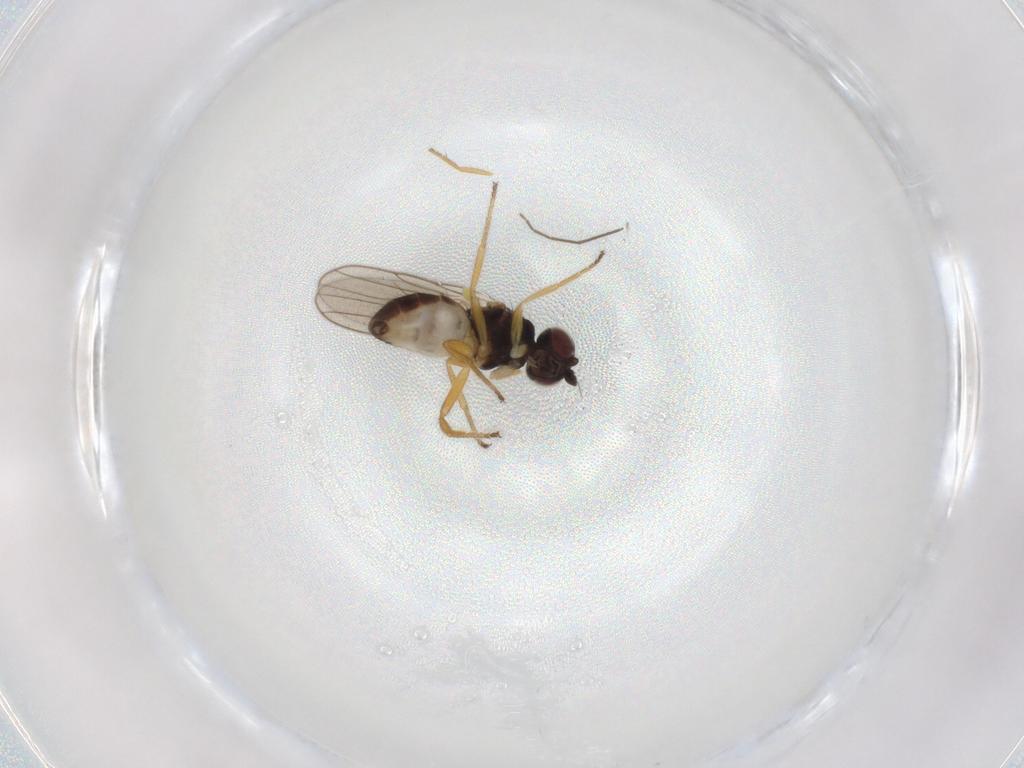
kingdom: Animalia
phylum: Arthropoda
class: Insecta
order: Diptera
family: Chloropidae
